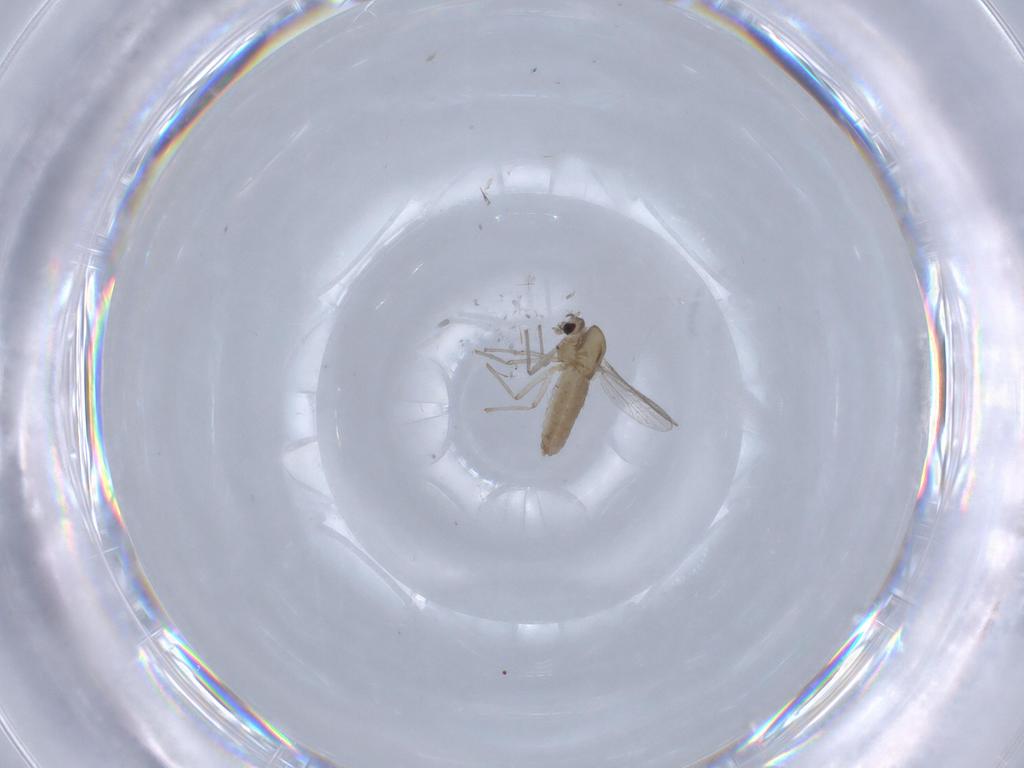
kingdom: Animalia
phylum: Arthropoda
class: Insecta
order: Diptera
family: Chironomidae
